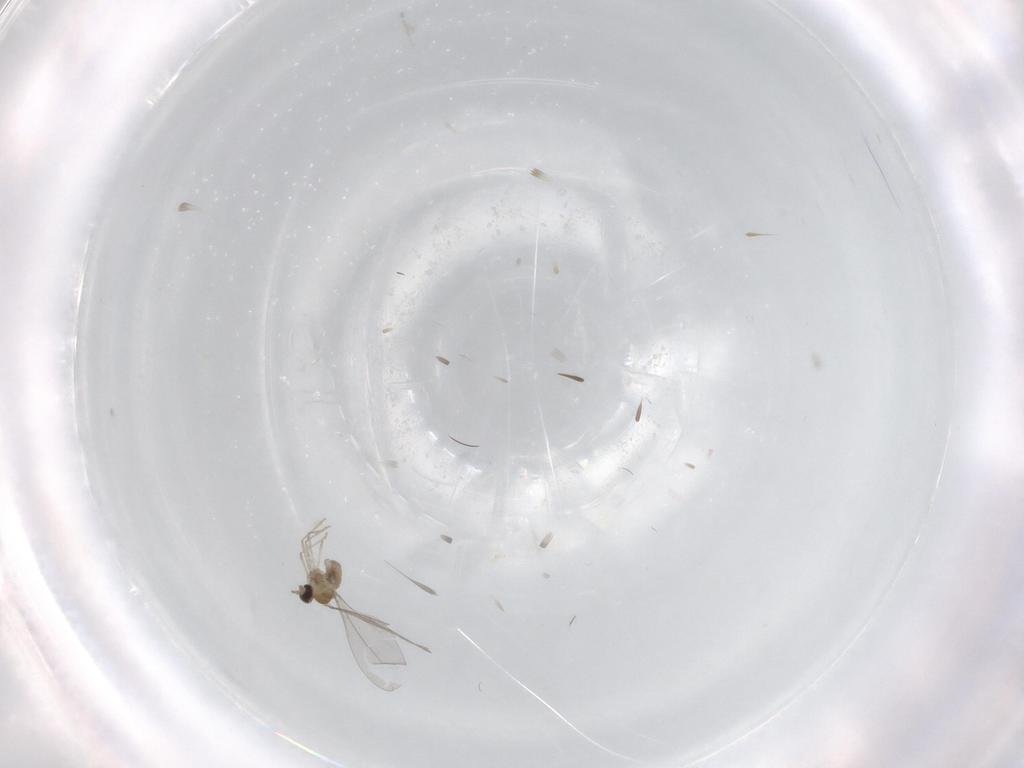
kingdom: Animalia
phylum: Arthropoda
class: Insecta
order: Diptera
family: Cecidomyiidae
